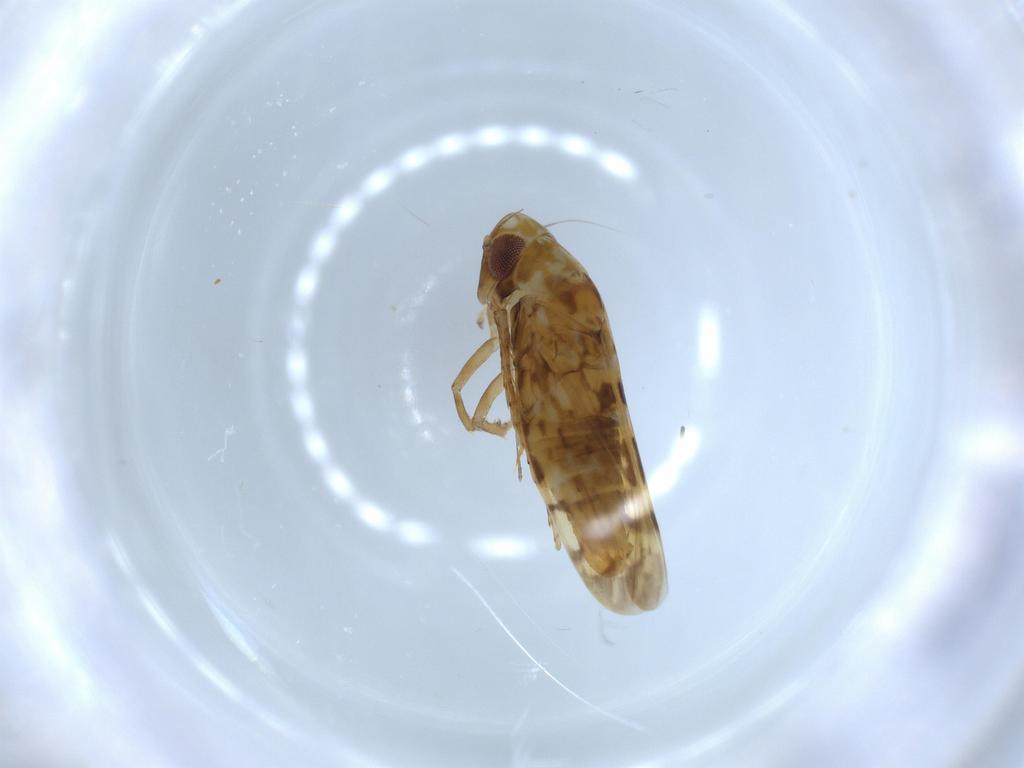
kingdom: Animalia
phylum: Arthropoda
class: Insecta
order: Hemiptera
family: Cicadellidae
